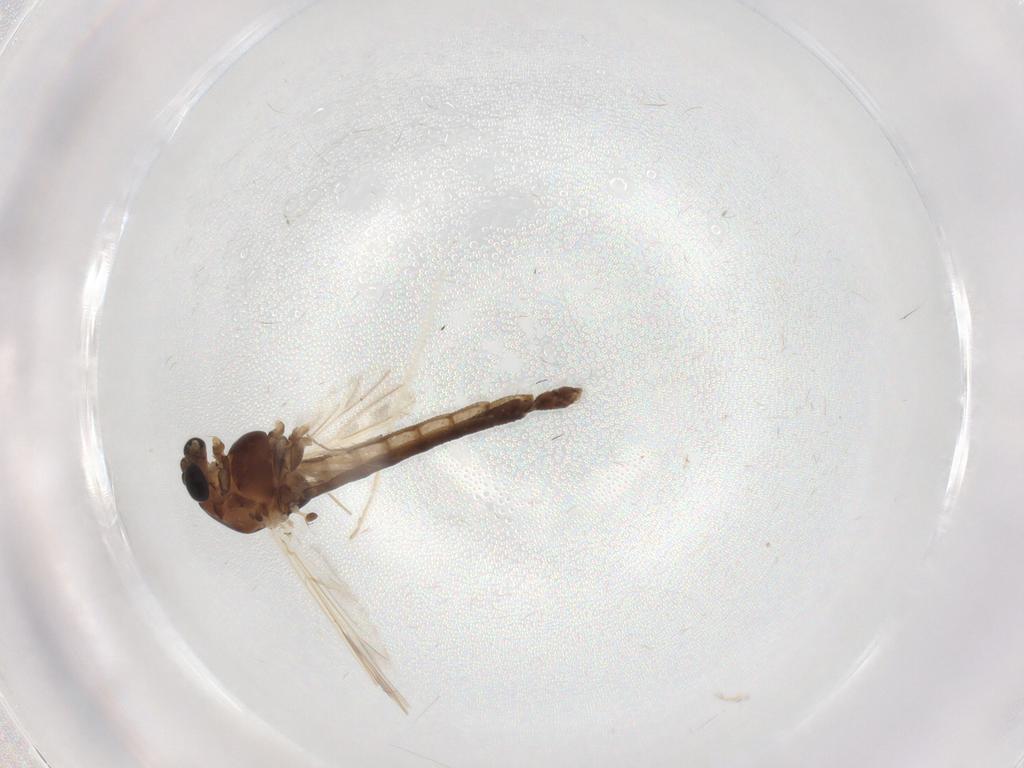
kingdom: Animalia
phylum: Arthropoda
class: Insecta
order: Diptera
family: Chironomidae
